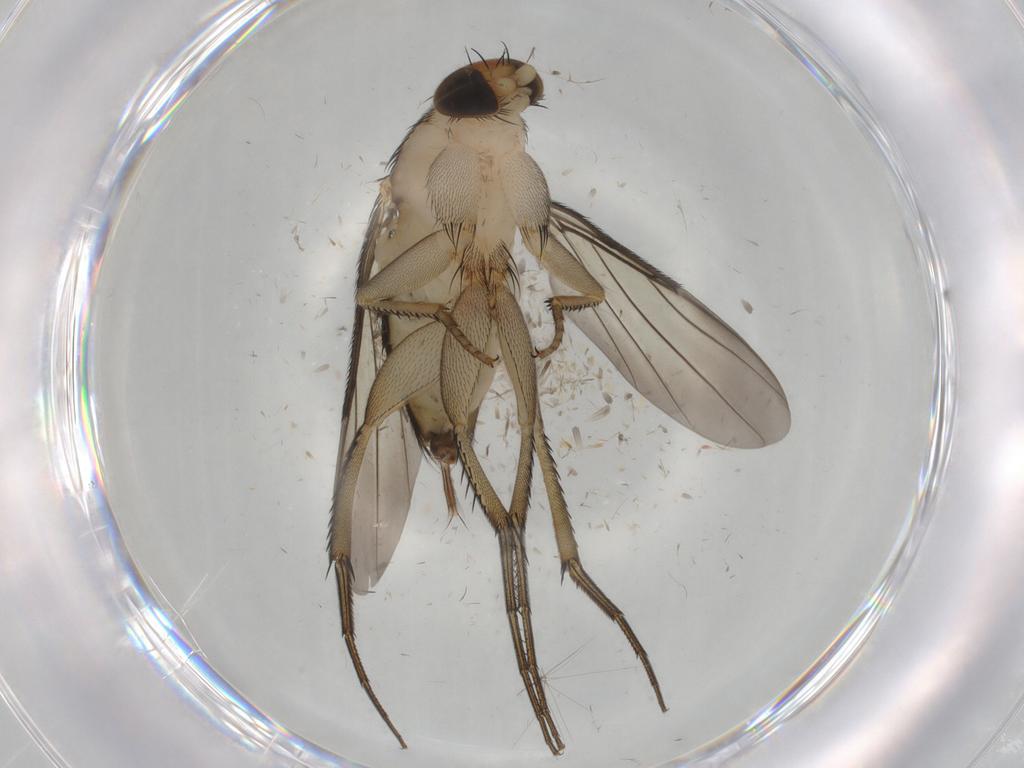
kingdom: Animalia
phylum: Arthropoda
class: Insecta
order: Diptera
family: Phoridae
